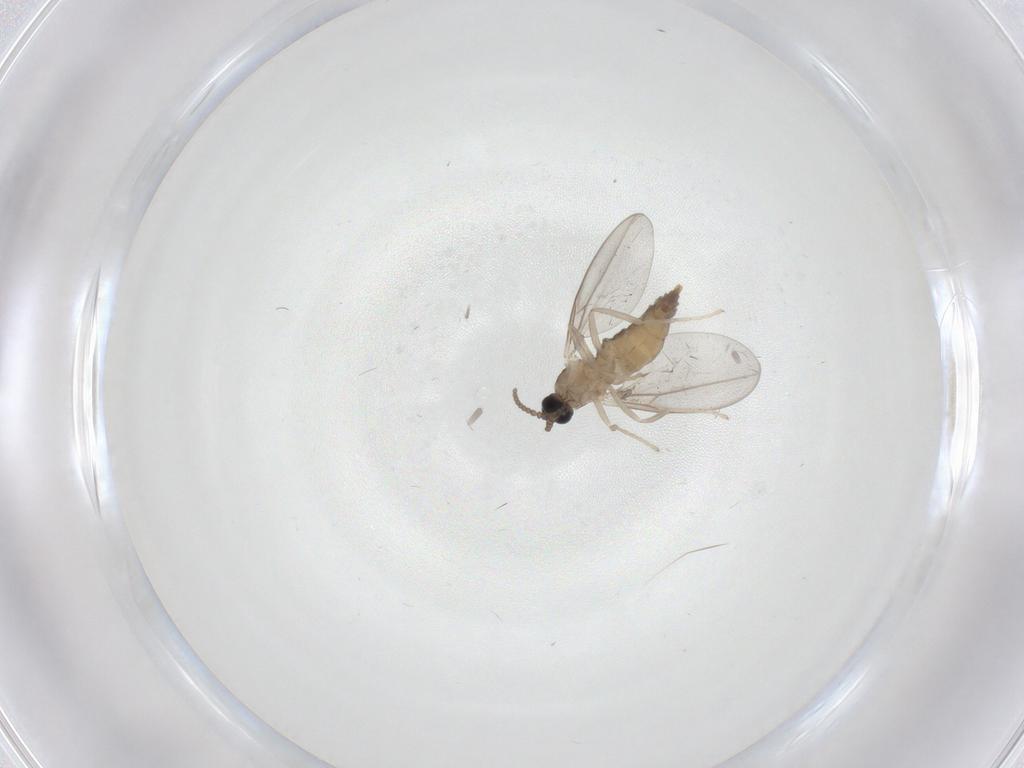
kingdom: Animalia
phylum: Arthropoda
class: Insecta
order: Diptera
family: Cecidomyiidae
